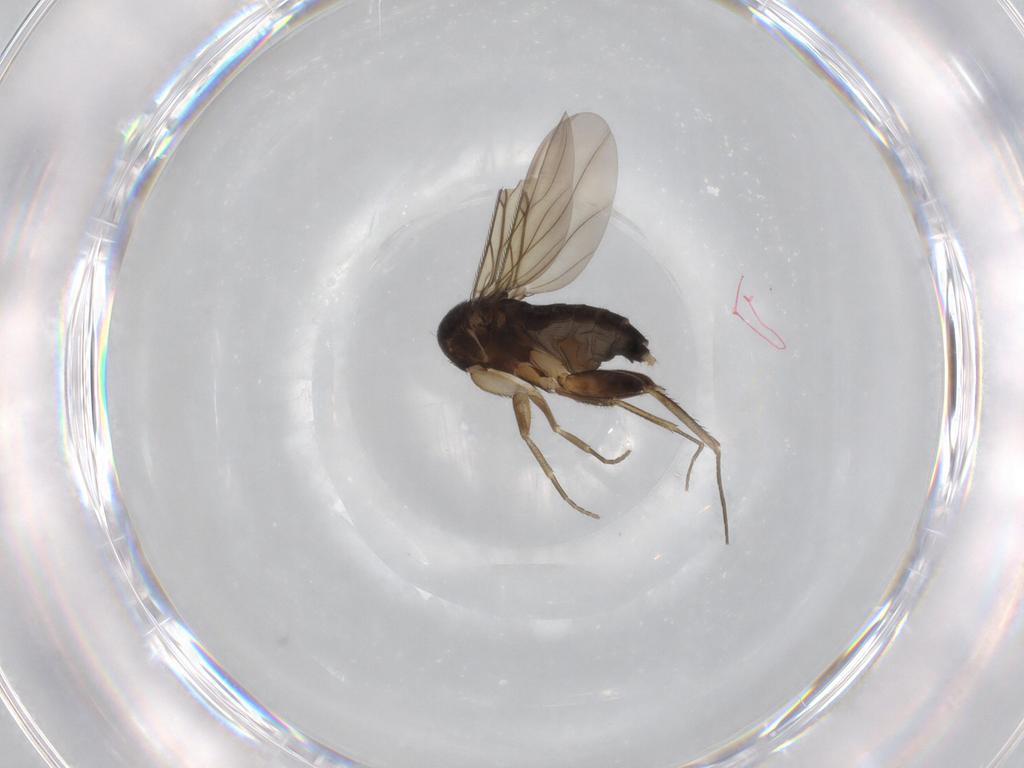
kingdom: Animalia
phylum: Arthropoda
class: Insecta
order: Diptera
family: Phoridae
